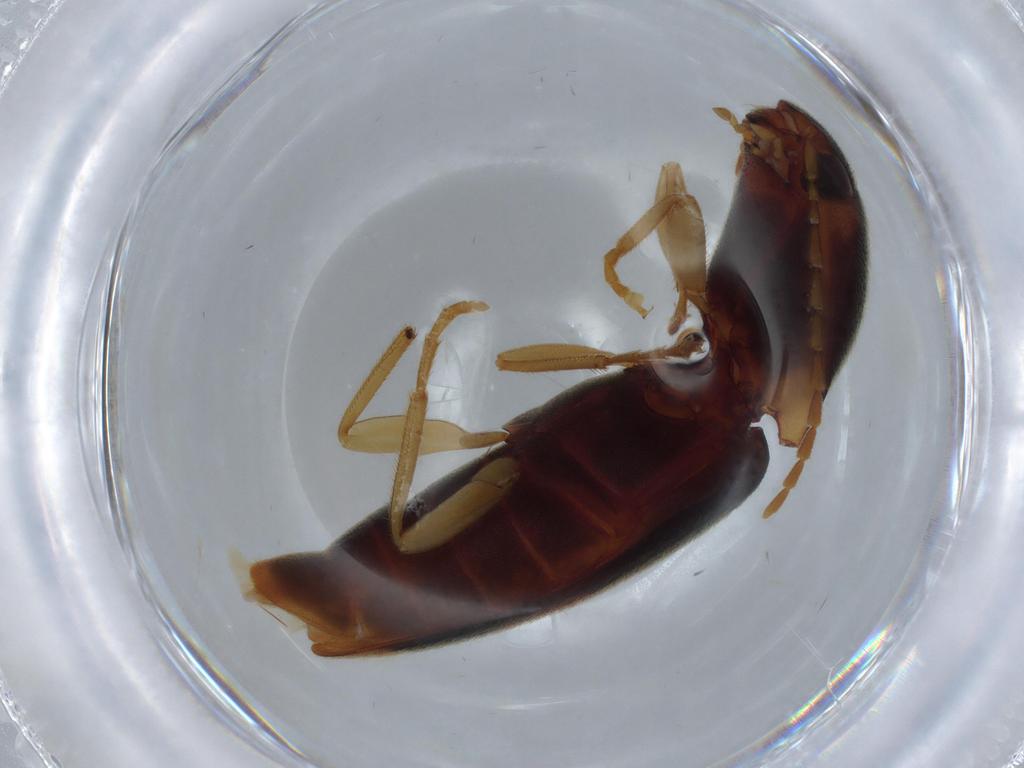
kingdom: Animalia
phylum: Arthropoda
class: Insecta
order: Coleoptera
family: Elateridae
